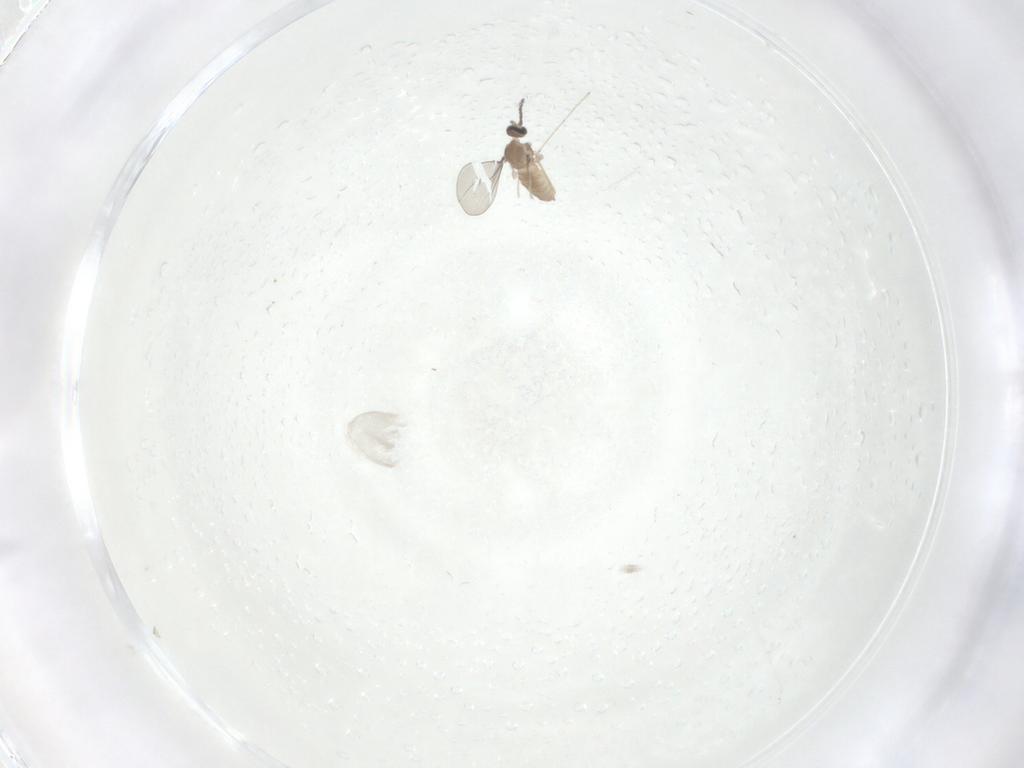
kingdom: Animalia
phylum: Arthropoda
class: Insecta
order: Diptera
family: Cecidomyiidae
